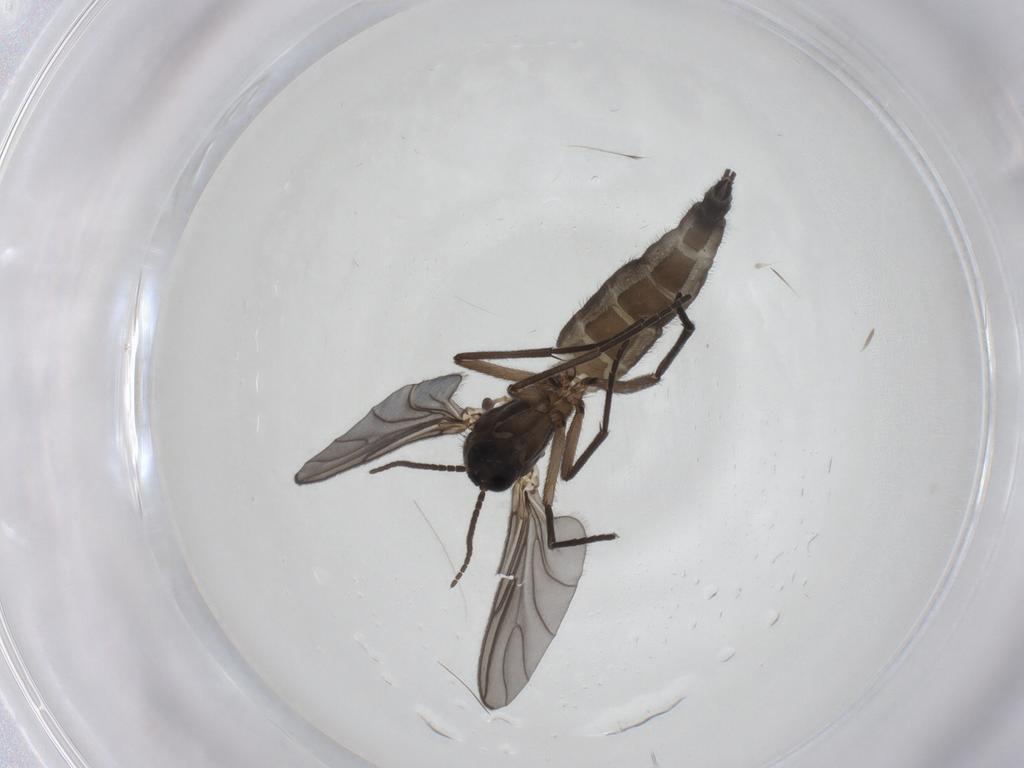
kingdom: Animalia
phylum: Arthropoda
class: Insecta
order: Diptera
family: Sciaridae
